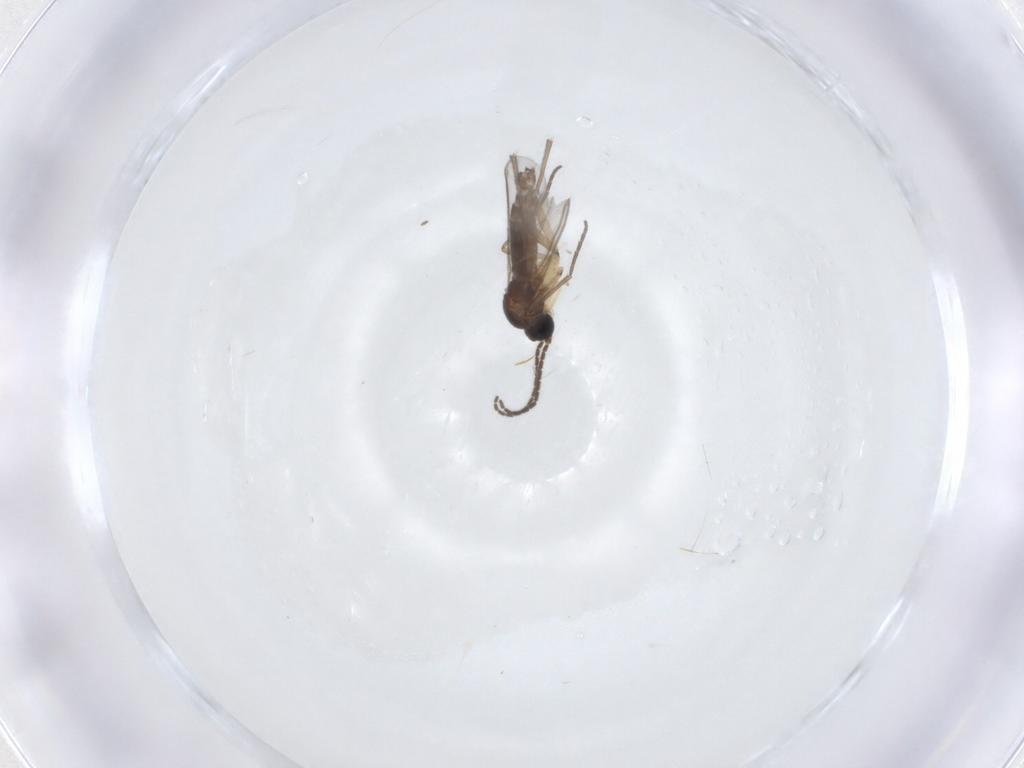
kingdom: Animalia
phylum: Arthropoda
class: Insecta
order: Diptera
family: Sciaridae
